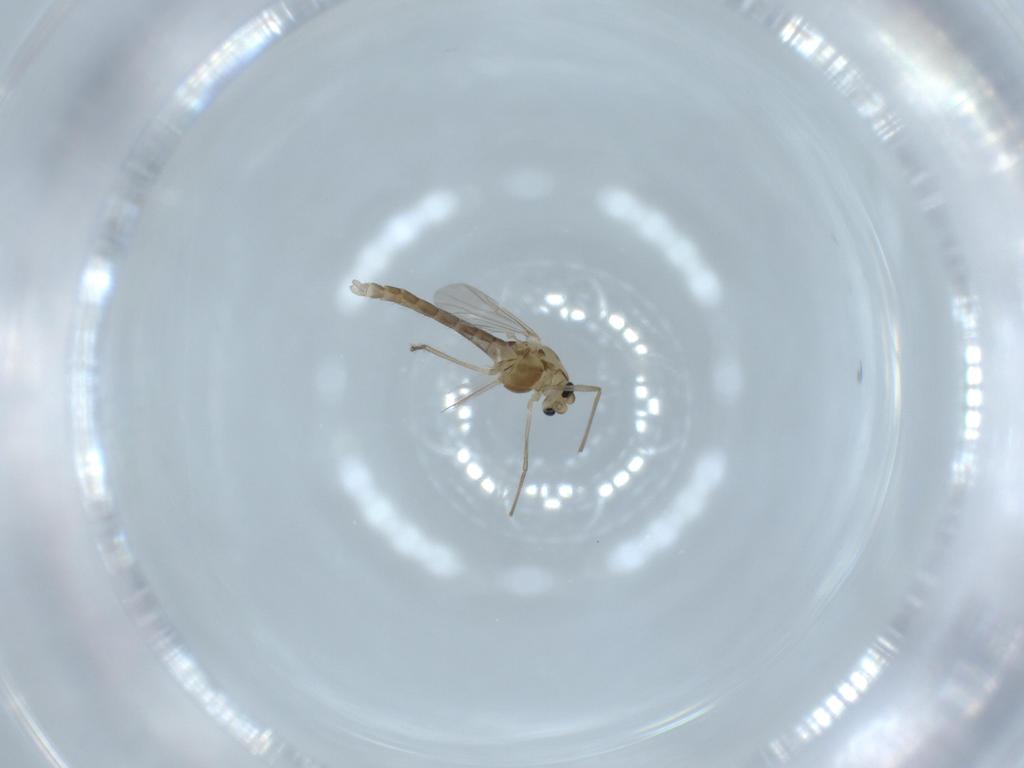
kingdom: Animalia
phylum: Arthropoda
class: Insecta
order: Diptera
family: Chironomidae
